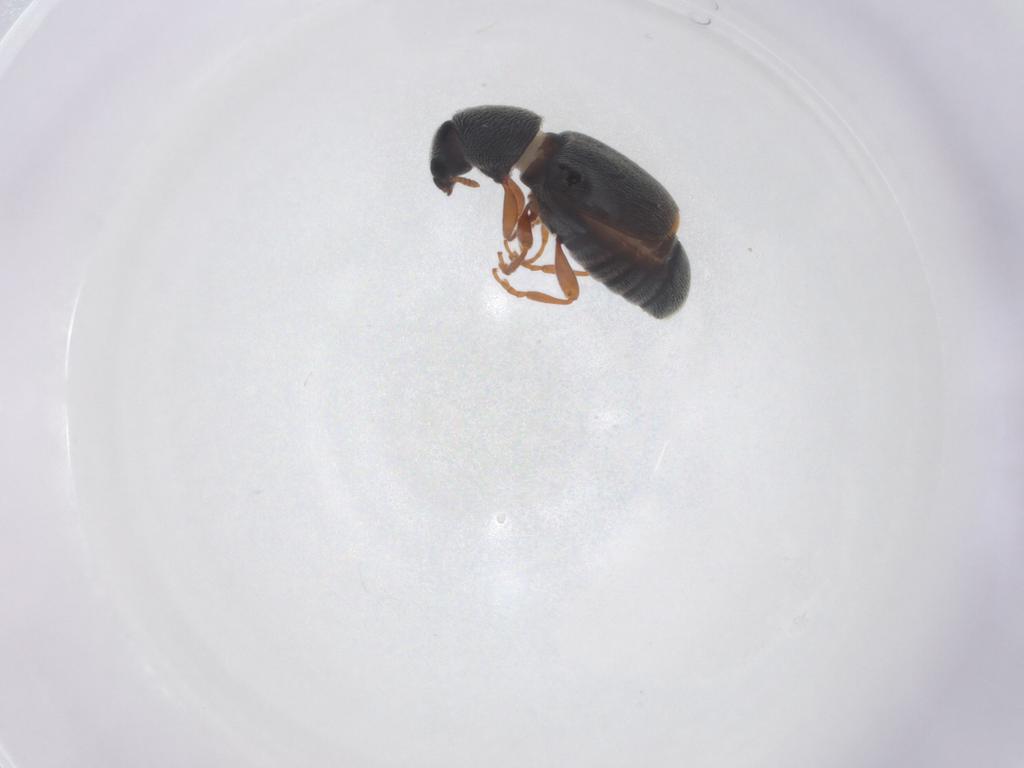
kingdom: Animalia
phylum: Arthropoda
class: Insecta
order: Coleoptera
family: Anthribidae
